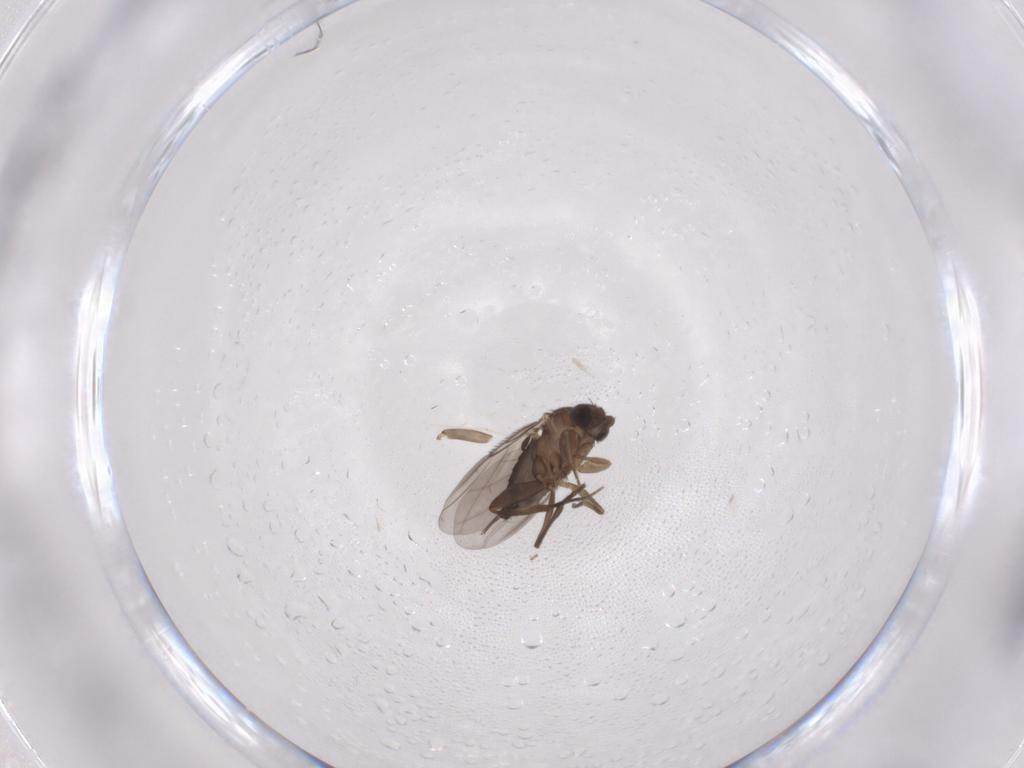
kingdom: Animalia
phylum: Arthropoda
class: Insecta
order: Diptera
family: Phoridae
